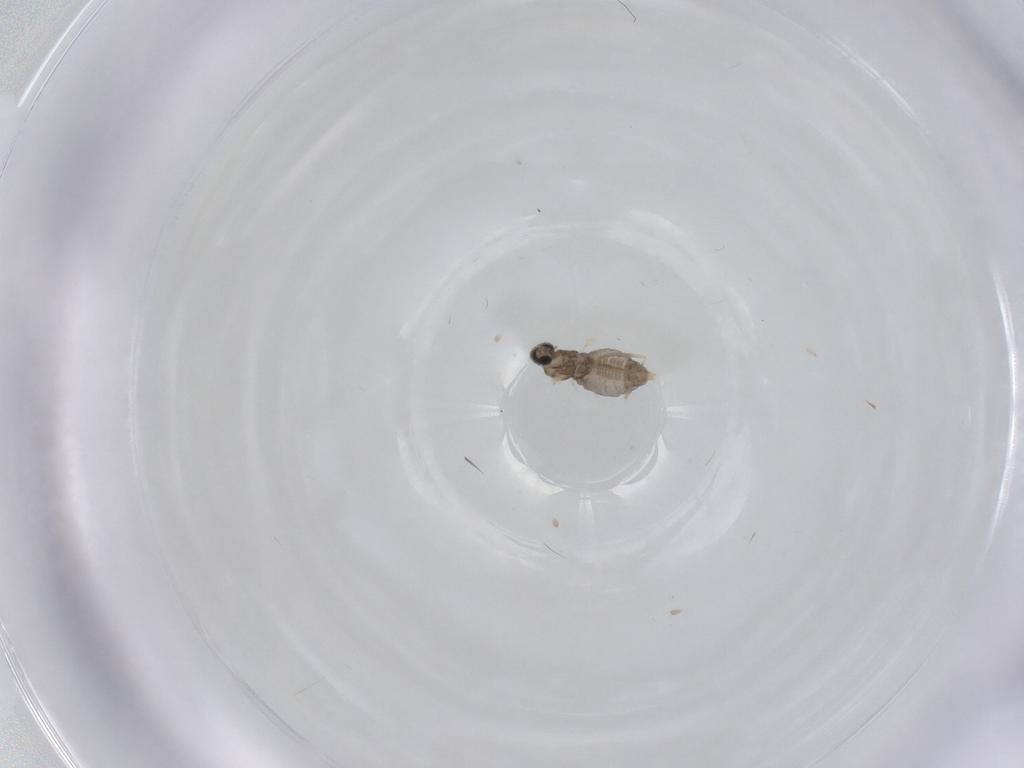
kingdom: Animalia
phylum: Arthropoda
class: Insecta
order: Diptera
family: Cecidomyiidae
